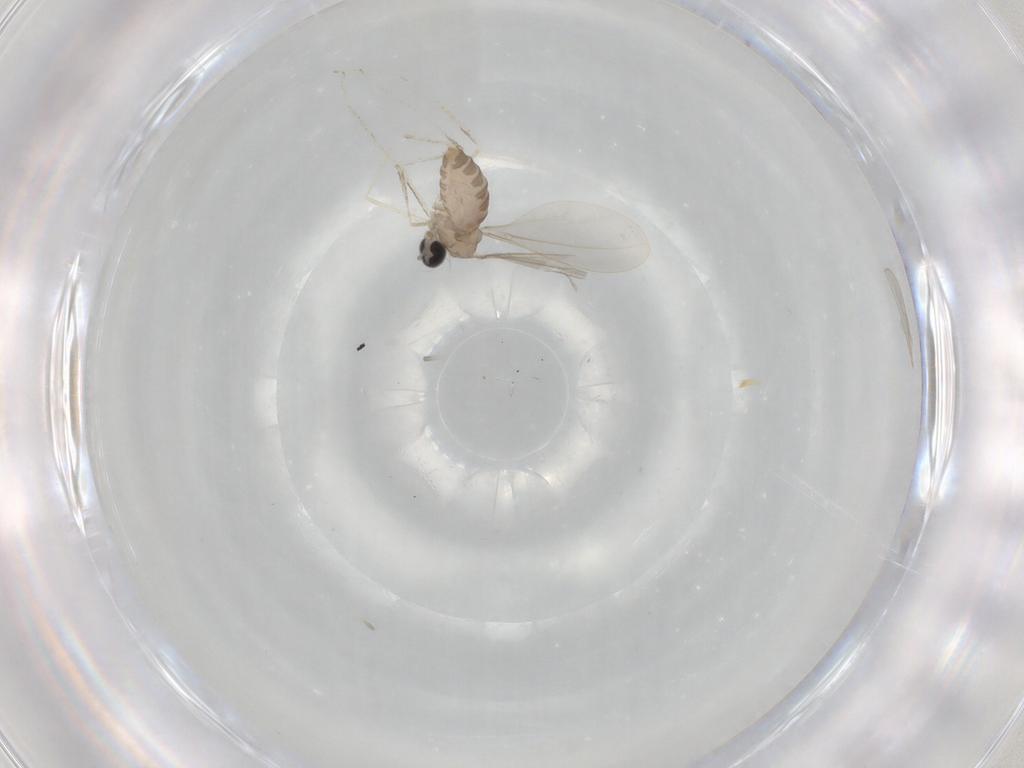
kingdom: Animalia
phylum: Arthropoda
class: Insecta
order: Diptera
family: Cecidomyiidae
